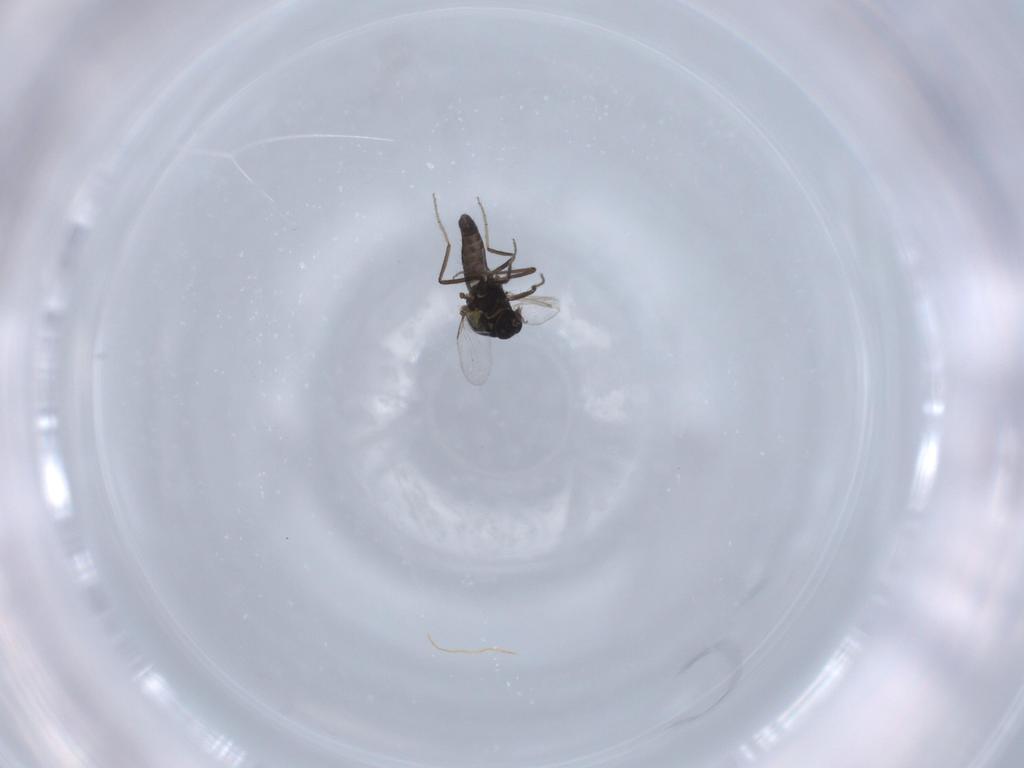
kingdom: Animalia
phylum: Arthropoda
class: Insecta
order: Diptera
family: Ceratopogonidae
